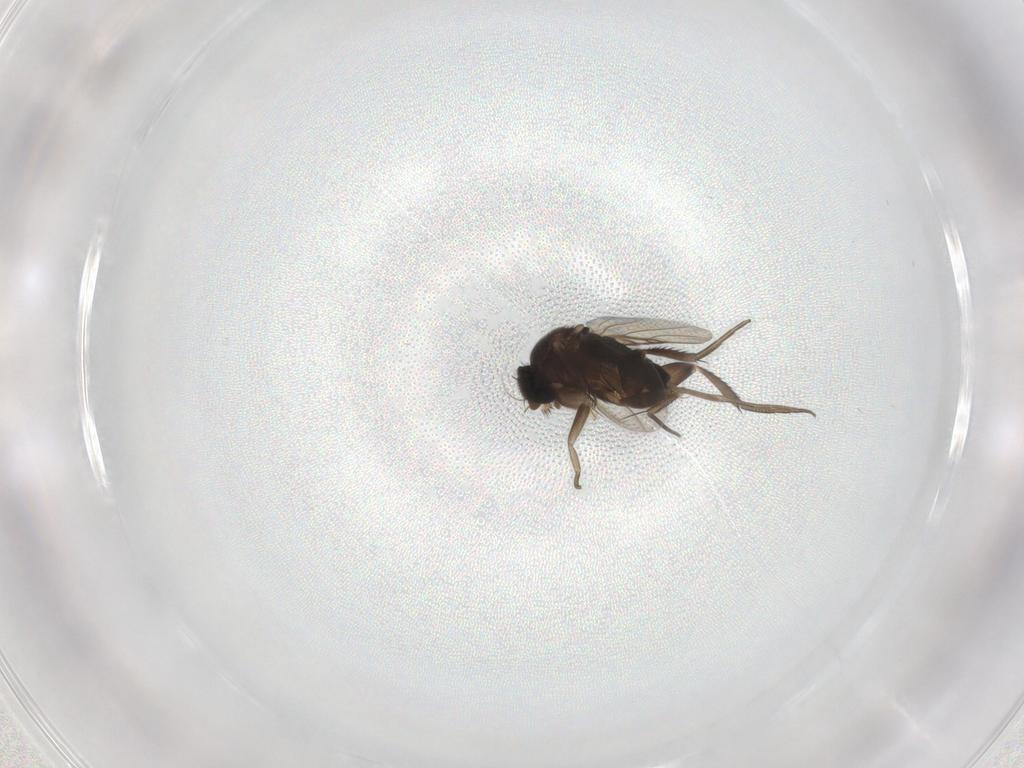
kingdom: Animalia
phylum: Arthropoda
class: Insecta
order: Diptera
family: Phoridae
